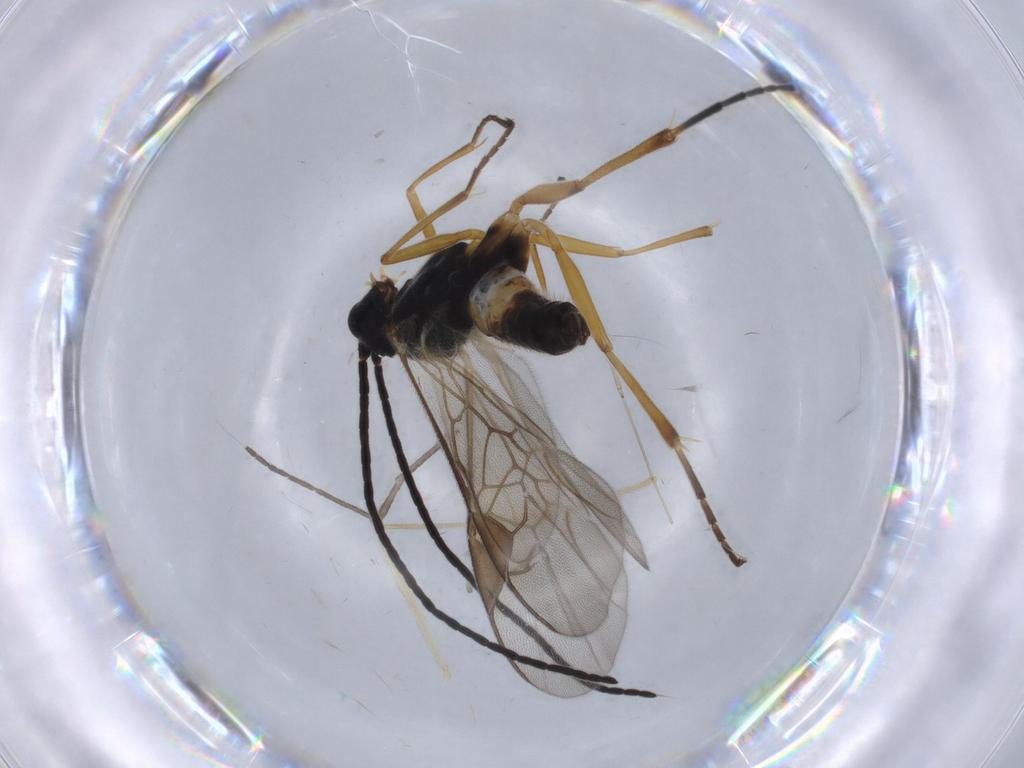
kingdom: Animalia
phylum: Arthropoda
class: Insecta
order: Hymenoptera
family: Braconidae
